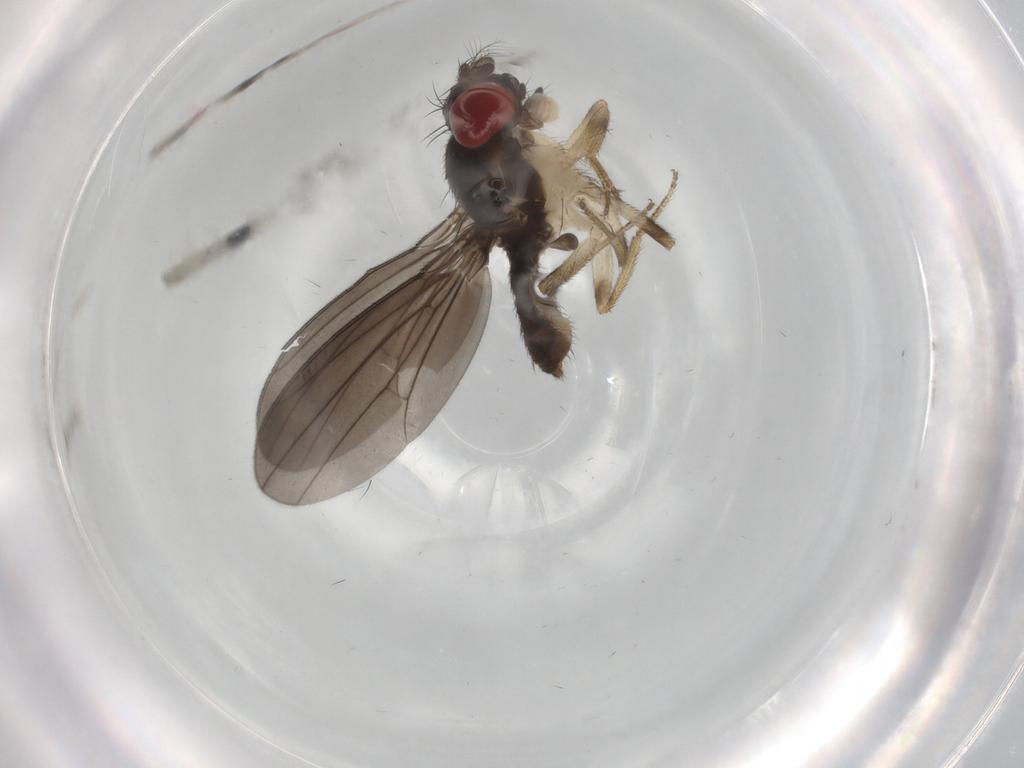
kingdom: Animalia
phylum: Arthropoda
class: Insecta
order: Diptera
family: Drosophilidae
